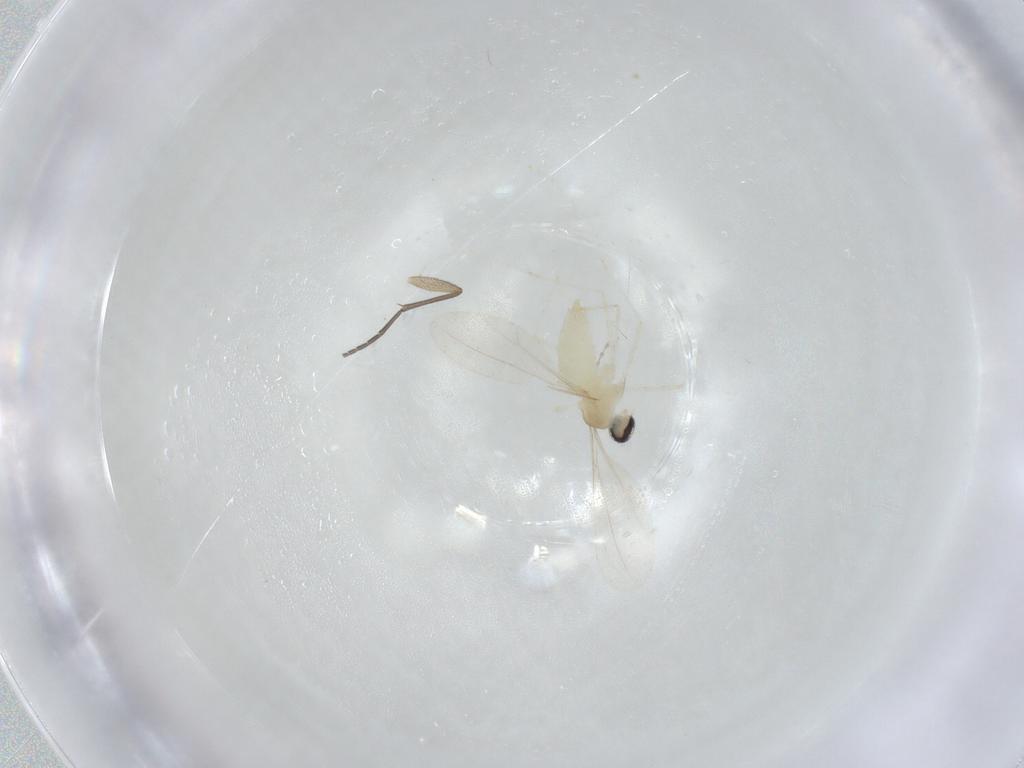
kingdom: Animalia
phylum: Arthropoda
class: Insecta
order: Diptera
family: Cecidomyiidae
